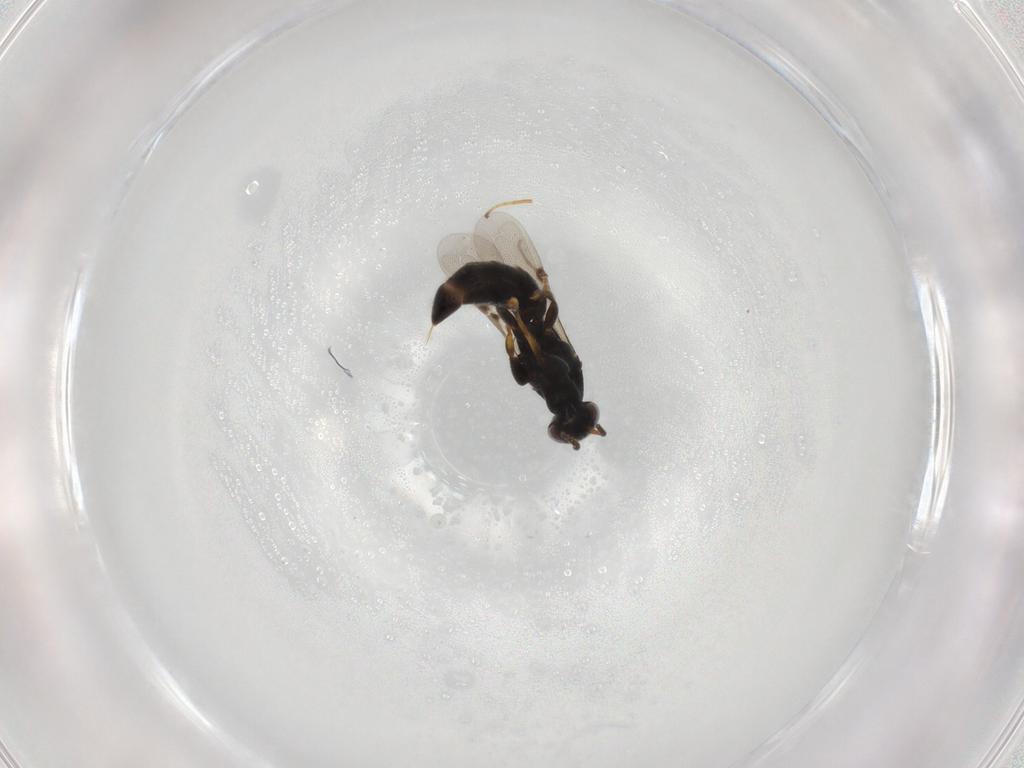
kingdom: Animalia
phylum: Arthropoda
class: Insecta
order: Hymenoptera
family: Bethylidae
